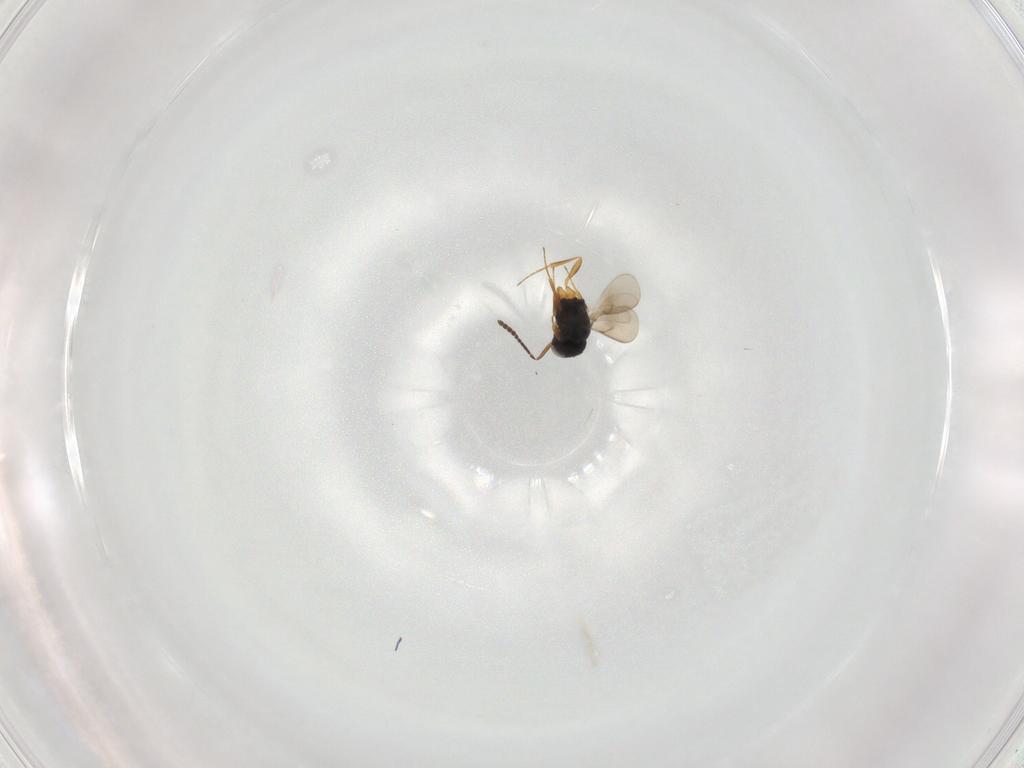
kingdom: Animalia
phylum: Arthropoda
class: Insecta
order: Hymenoptera
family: Scelionidae
